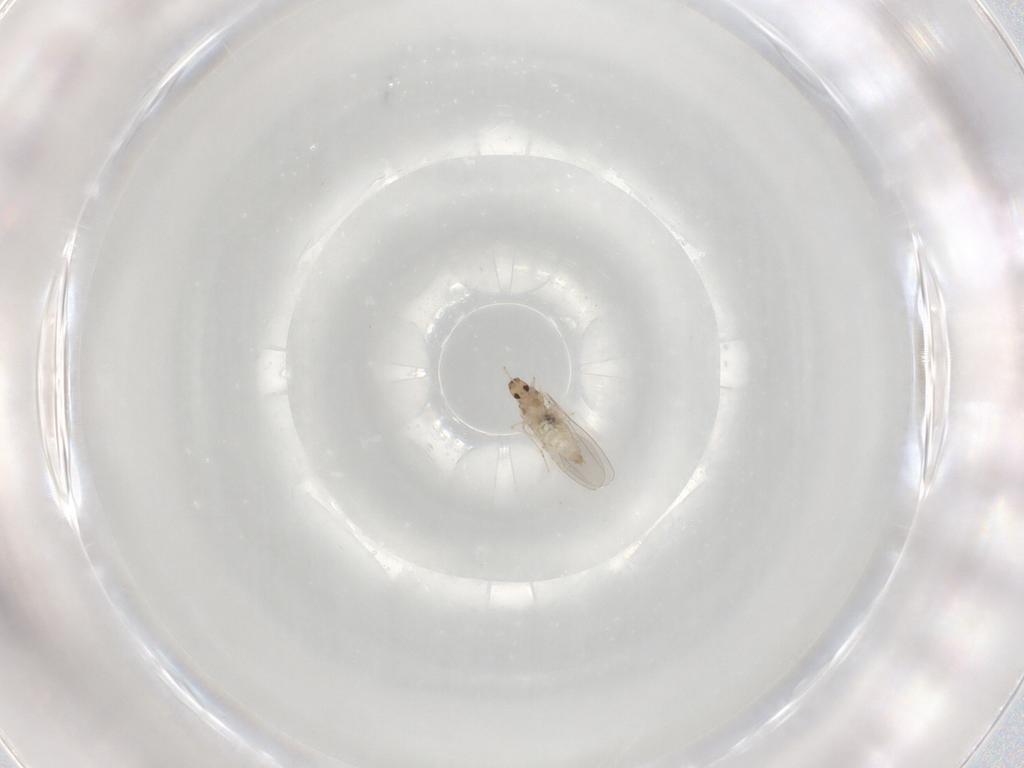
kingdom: Animalia
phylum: Arthropoda
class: Insecta
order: Diptera
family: Cecidomyiidae
